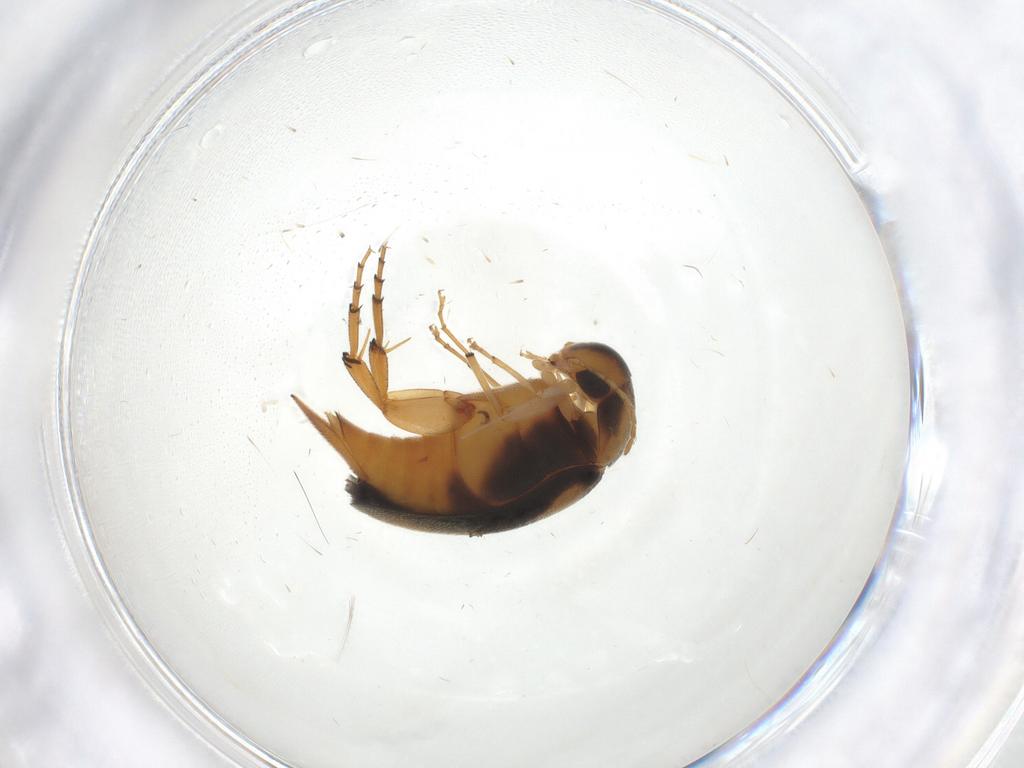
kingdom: Animalia
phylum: Arthropoda
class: Insecta
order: Coleoptera
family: Mordellidae
